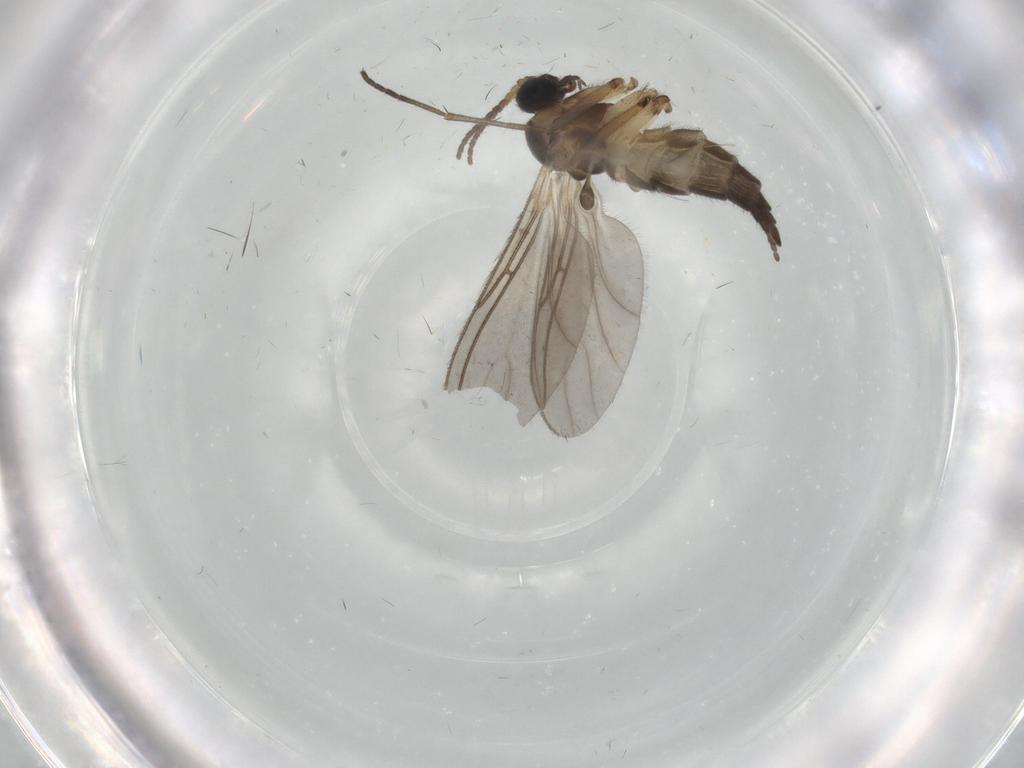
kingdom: Animalia
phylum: Arthropoda
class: Insecta
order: Diptera
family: Sciaridae
